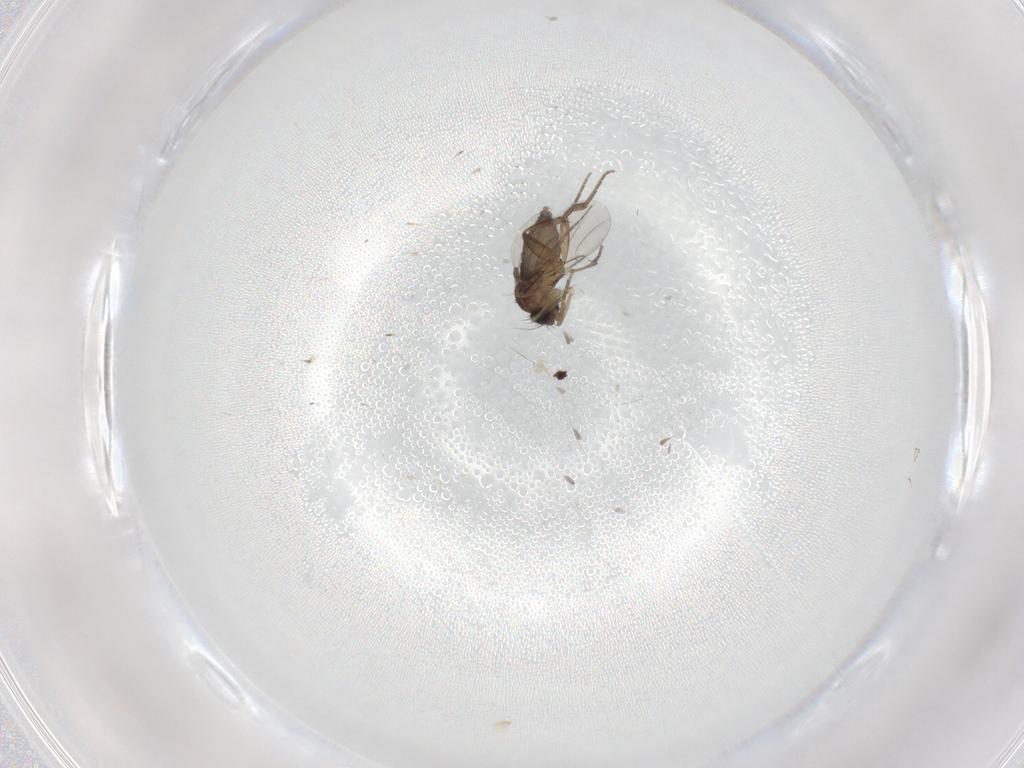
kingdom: Animalia
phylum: Arthropoda
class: Insecta
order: Diptera
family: Phoridae
